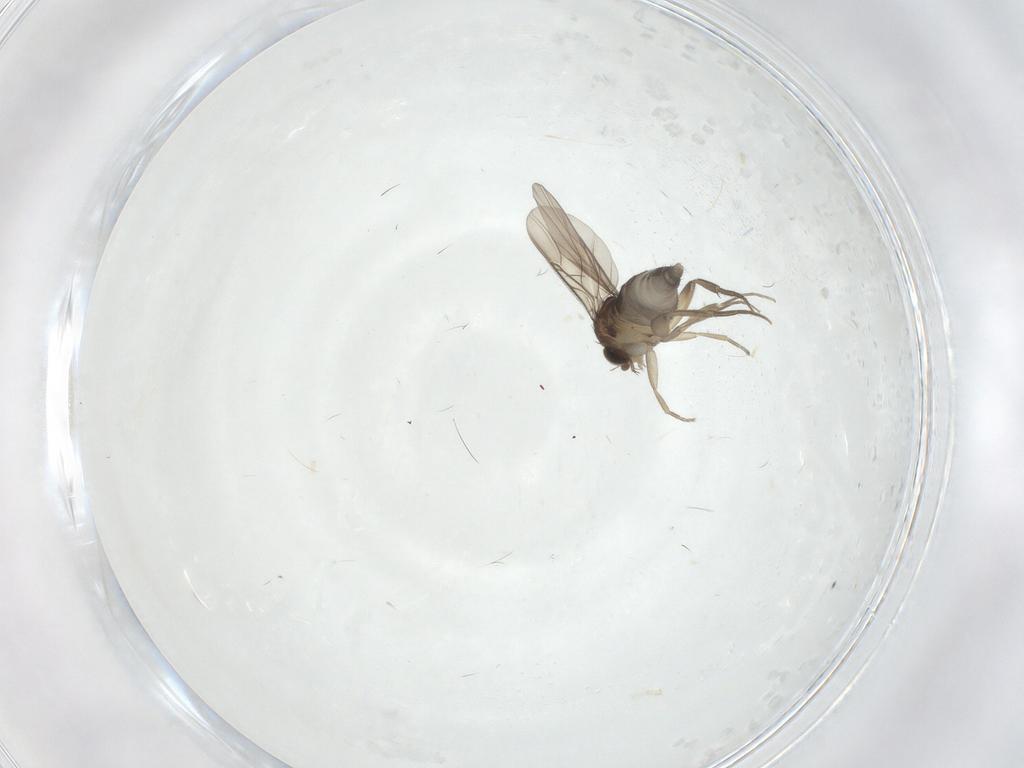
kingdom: Animalia
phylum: Arthropoda
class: Insecta
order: Diptera
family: Phoridae
